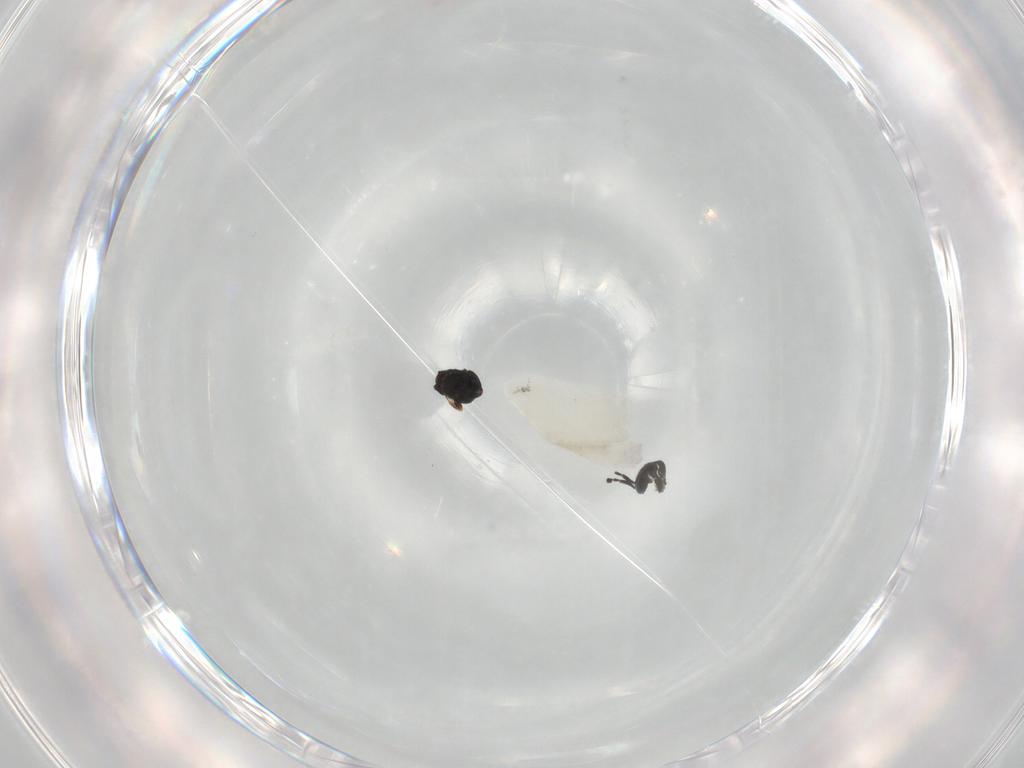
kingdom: Animalia
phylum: Arthropoda
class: Insecta
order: Hymenoptera
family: Scelionidae
